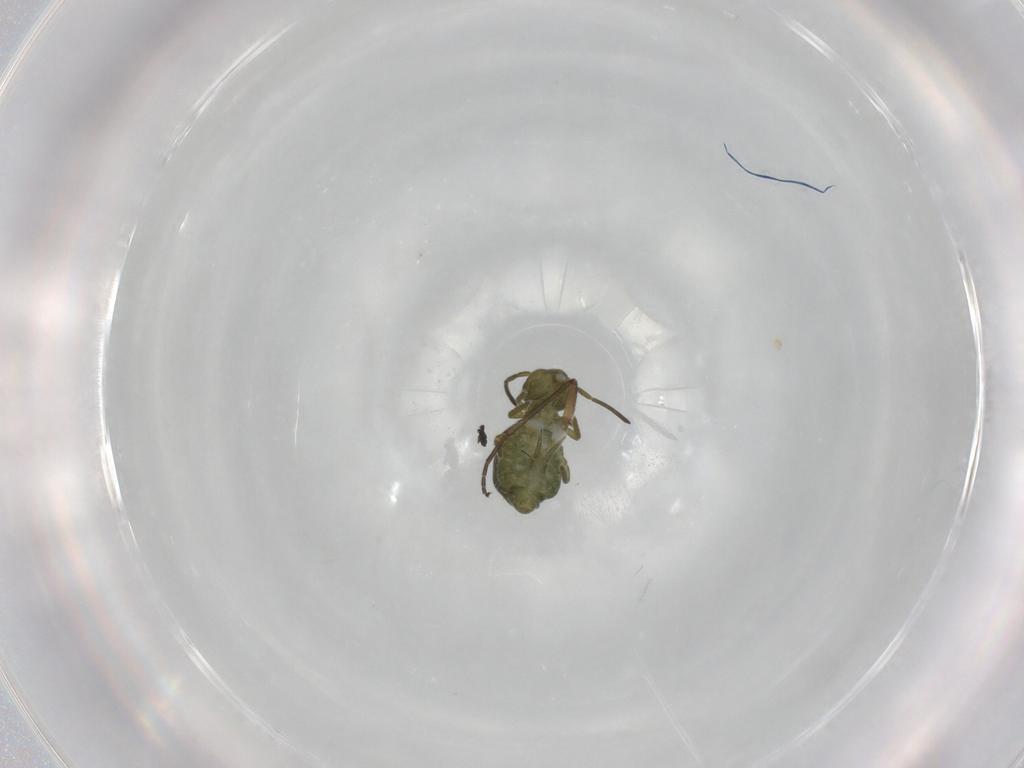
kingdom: Animalia
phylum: Arthropoda
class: Collembola
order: Symphypleona
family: Sminthuridae
